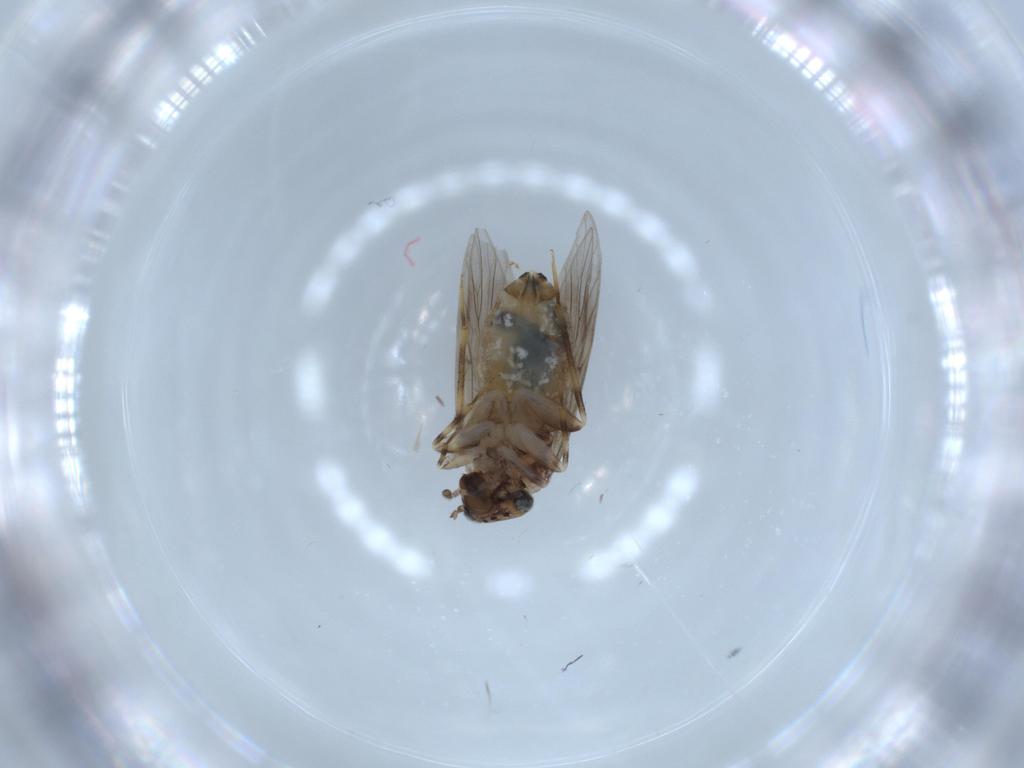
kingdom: Animalia
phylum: Arthropoda
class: Insecta
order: Psocodea
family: Lepidopsocidae
